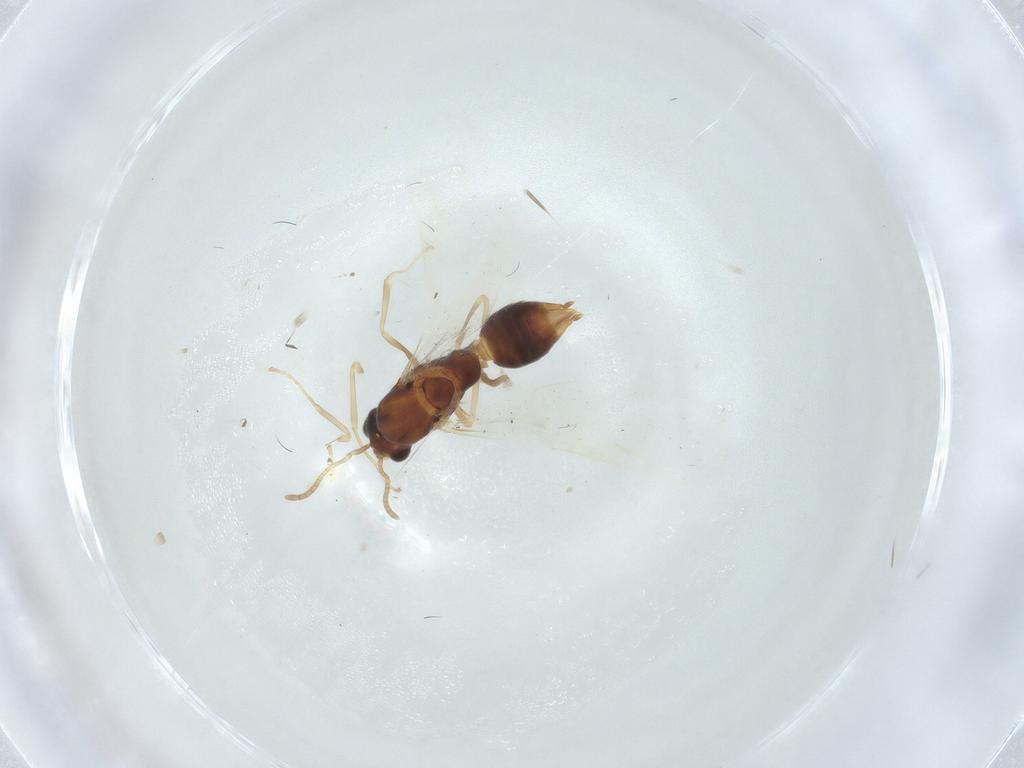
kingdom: Animalia
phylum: Arthropoda
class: Insecta
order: Hymenoptera
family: Formicidae
